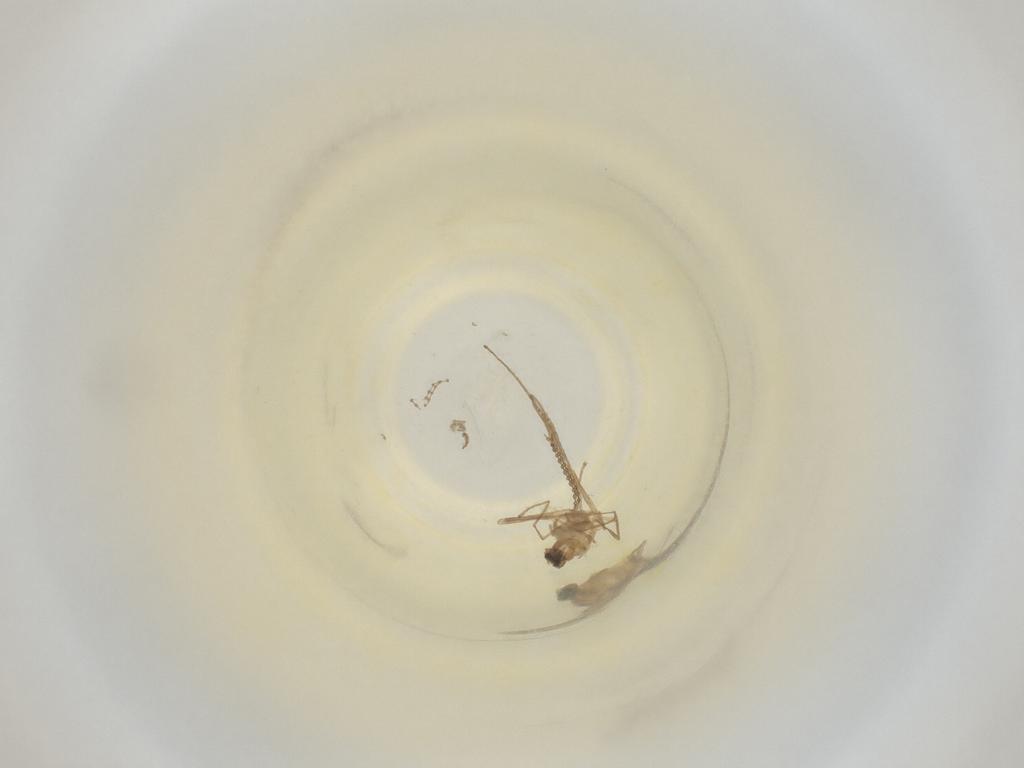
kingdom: Animalia
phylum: Arthropoda
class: Insecta
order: Diptera
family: Cecidomyiidae
